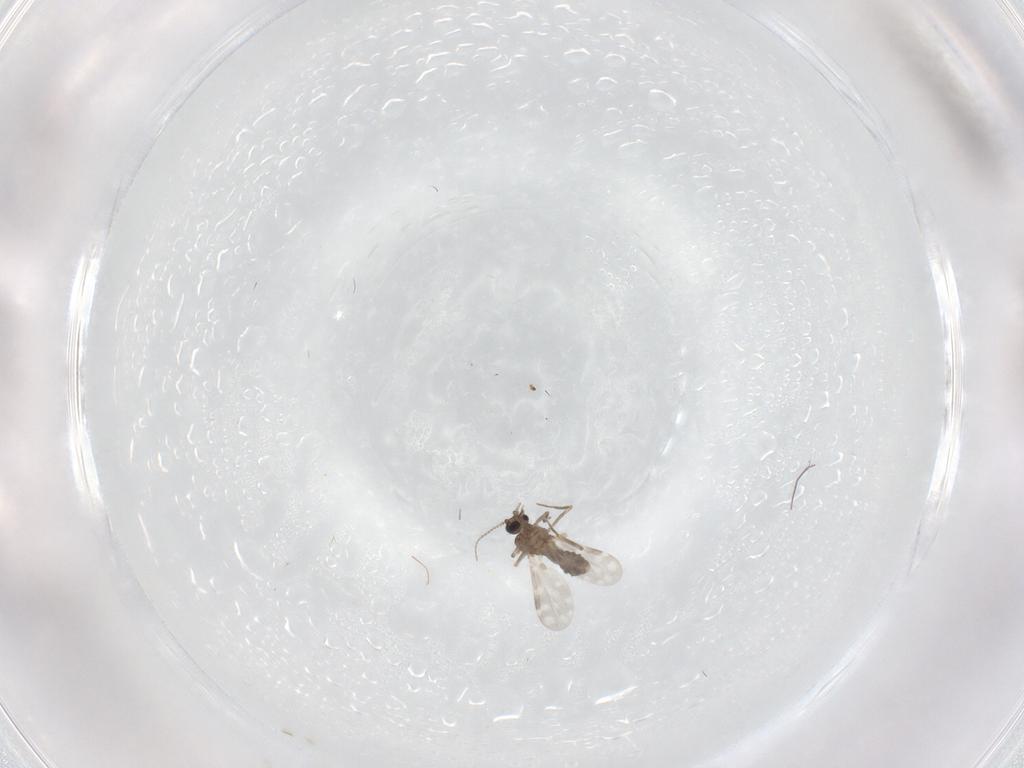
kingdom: Animalia
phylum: Arthropoda
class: Insecta
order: Diptera
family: Ceratopogonidae
